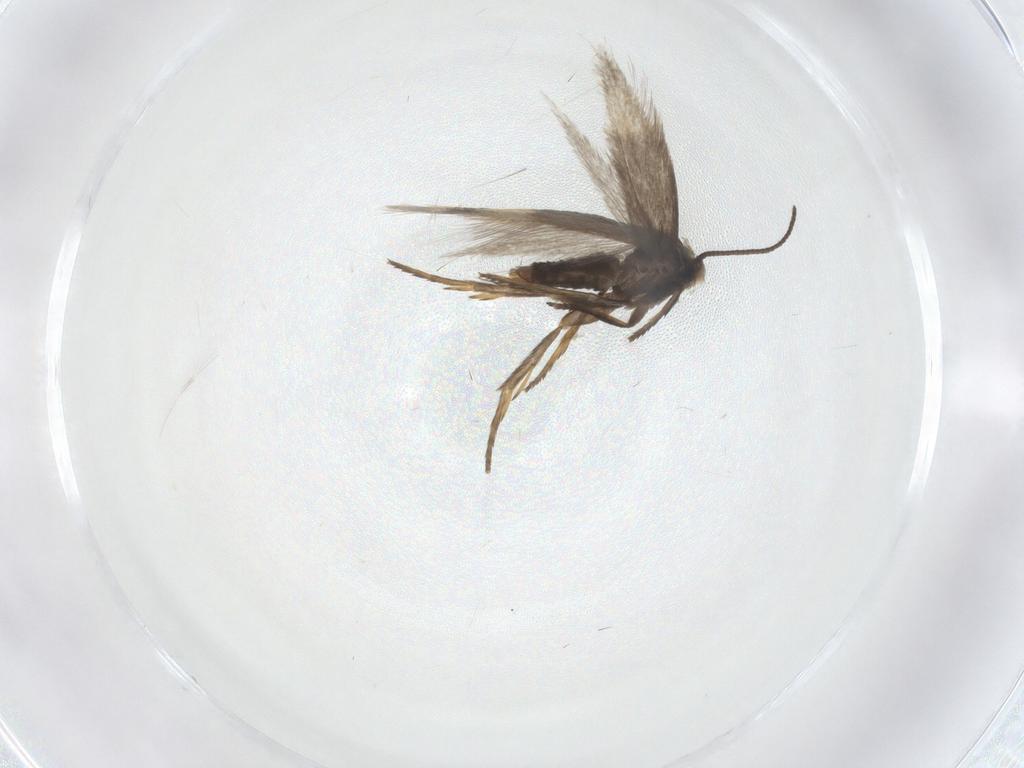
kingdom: Animalia
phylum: Arthropoda
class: Insecta
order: Lepidoptera
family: Nepticulidae
